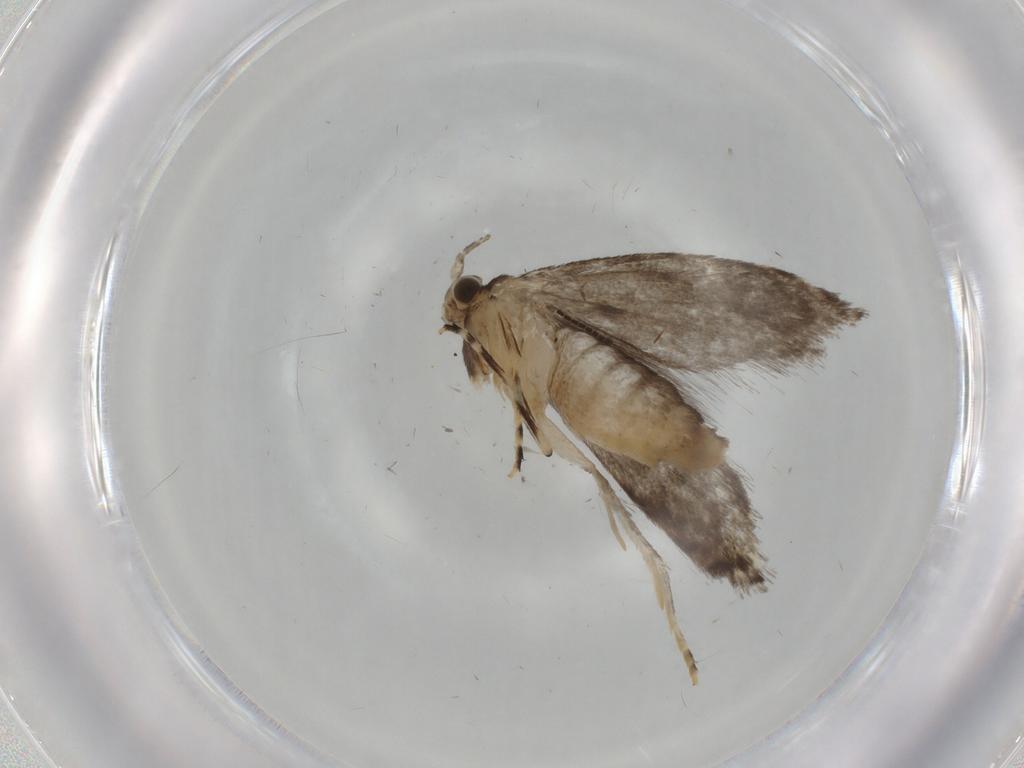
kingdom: Animalia
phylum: Arthropoda
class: Insecta
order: Lepidoptera
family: Tineidae
